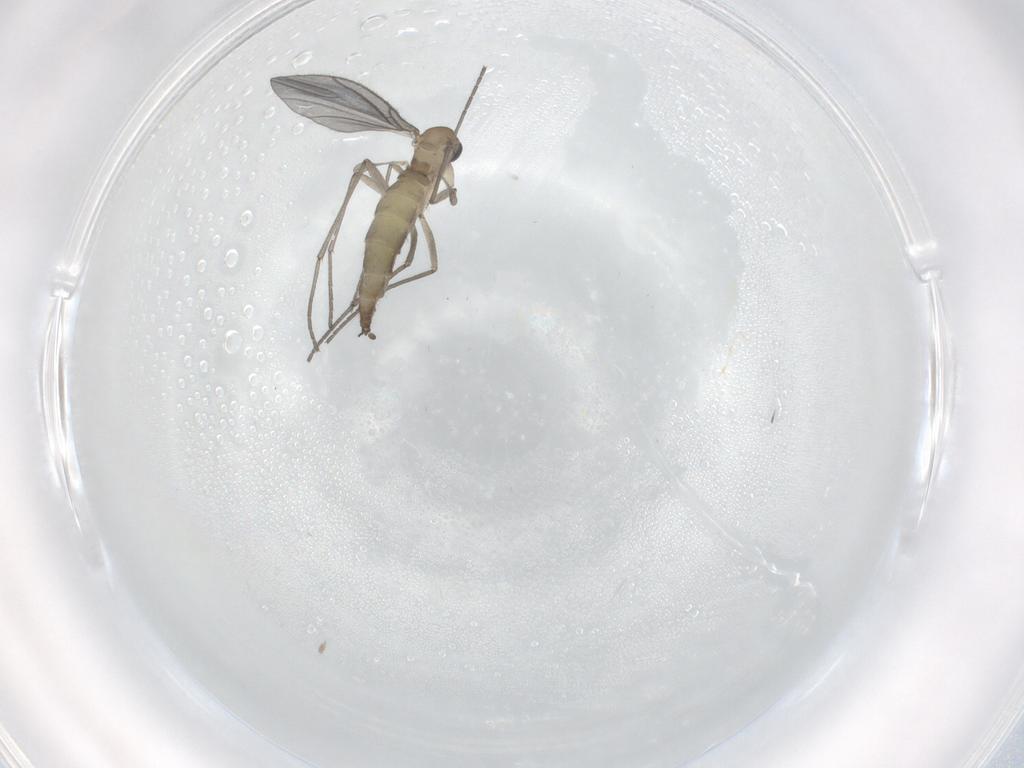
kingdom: Animalia
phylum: Arthropoda
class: Insecta
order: Diptera
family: Sciaridae
